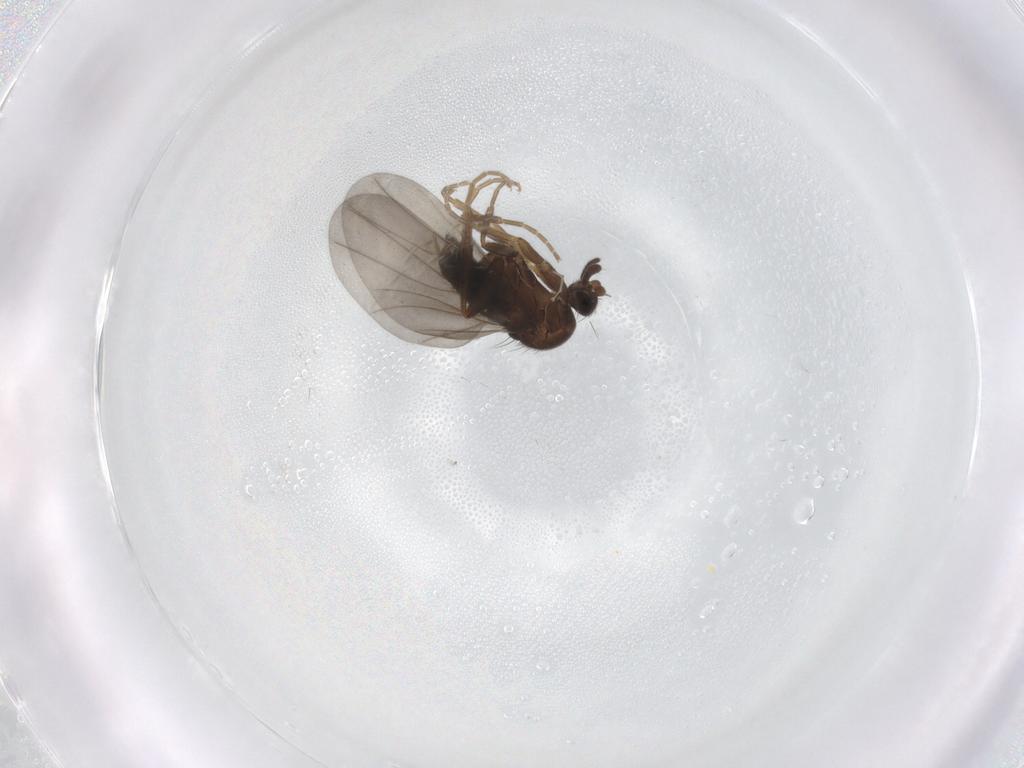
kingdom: Animalia
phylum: Arthropoda
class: Insecta
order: Diptera
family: Cecidomyiidae
